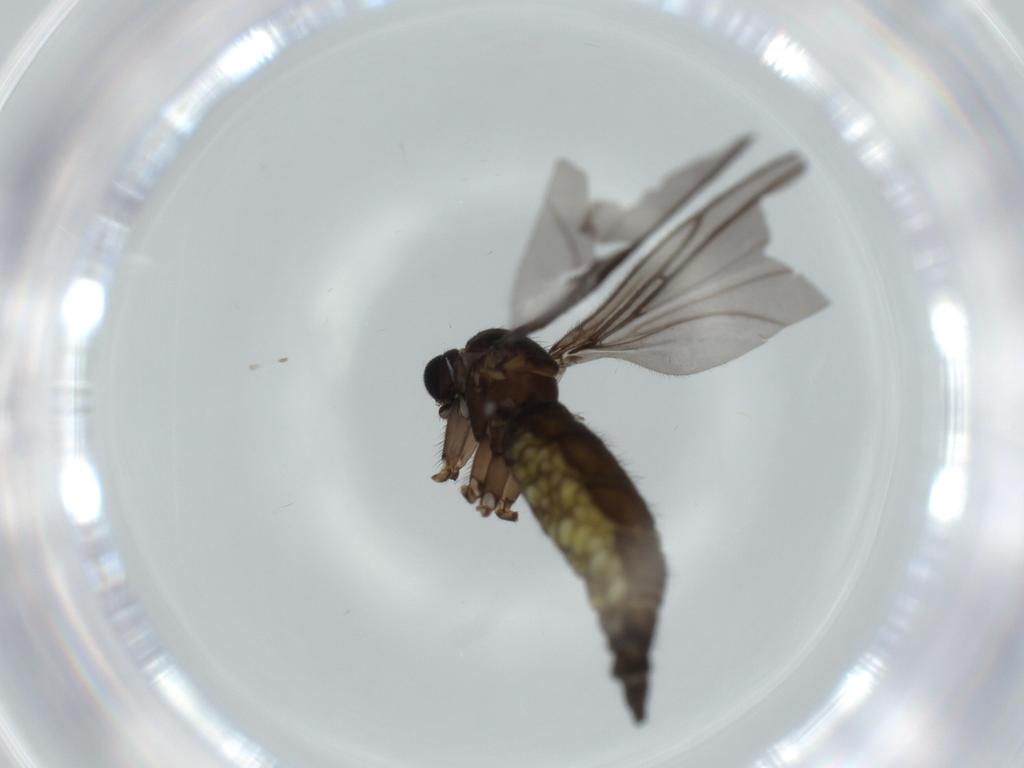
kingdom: Animalia
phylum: Arthropoda
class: Insecta
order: Diptera
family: Sciaridae
